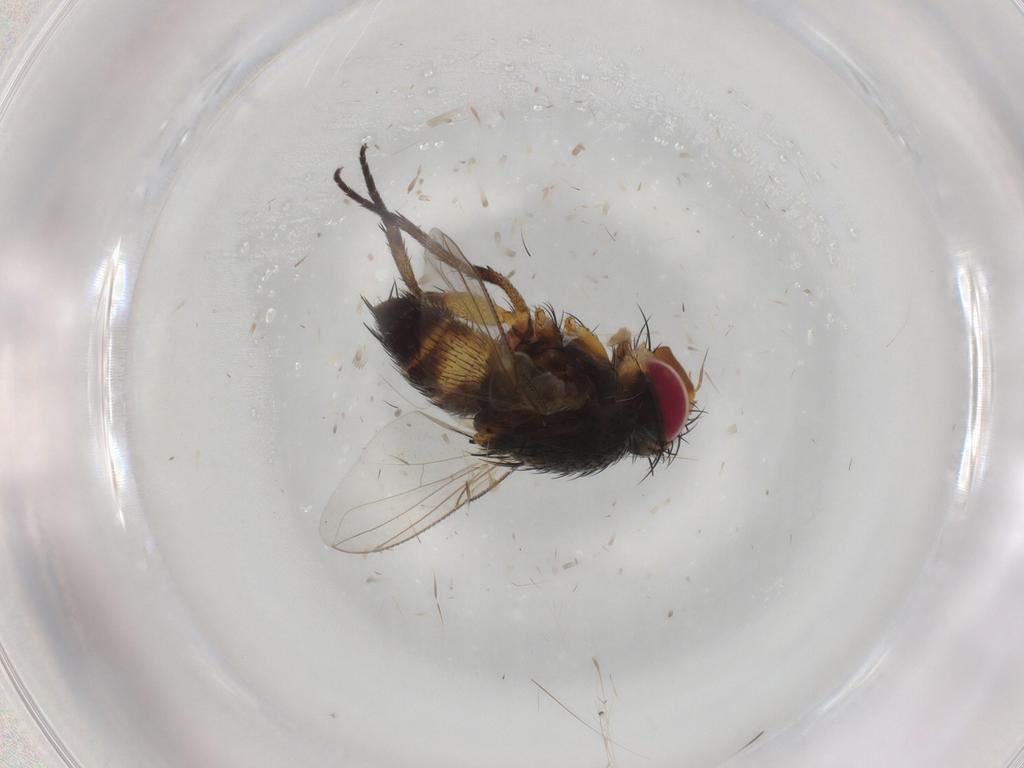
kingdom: Animalia
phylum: Arthropoda
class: Insecta
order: Diptera
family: Tachinidae
